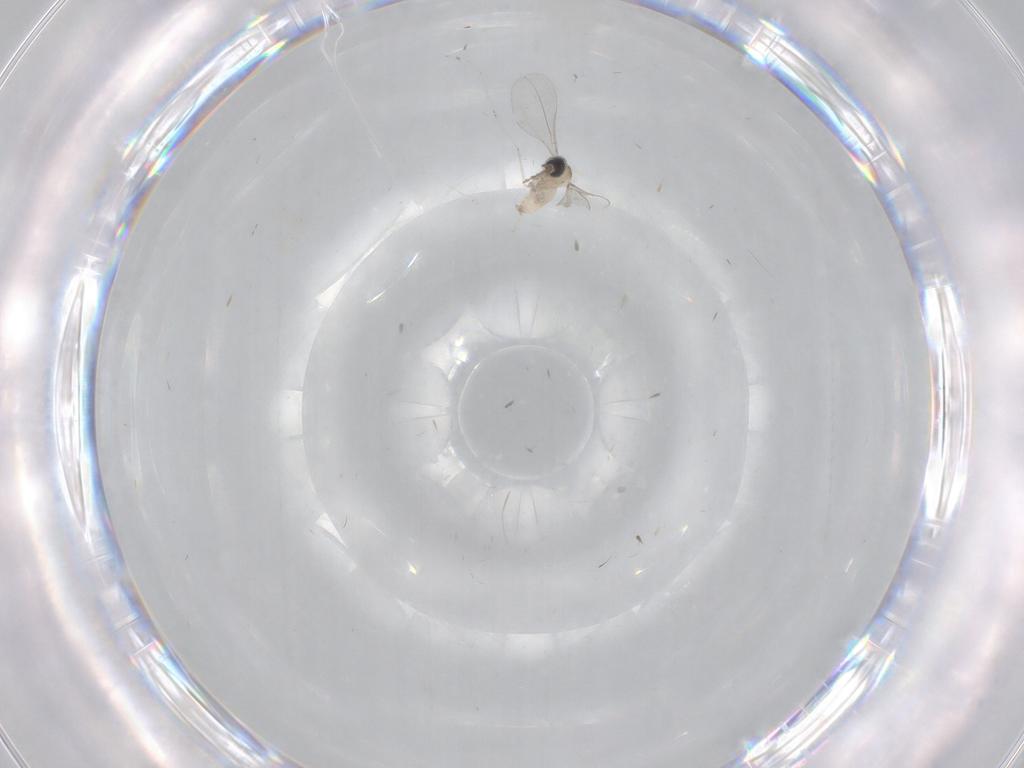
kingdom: Animalia
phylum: Arthropoda
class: Insecta
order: Diptera
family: Cecidomyiidae
